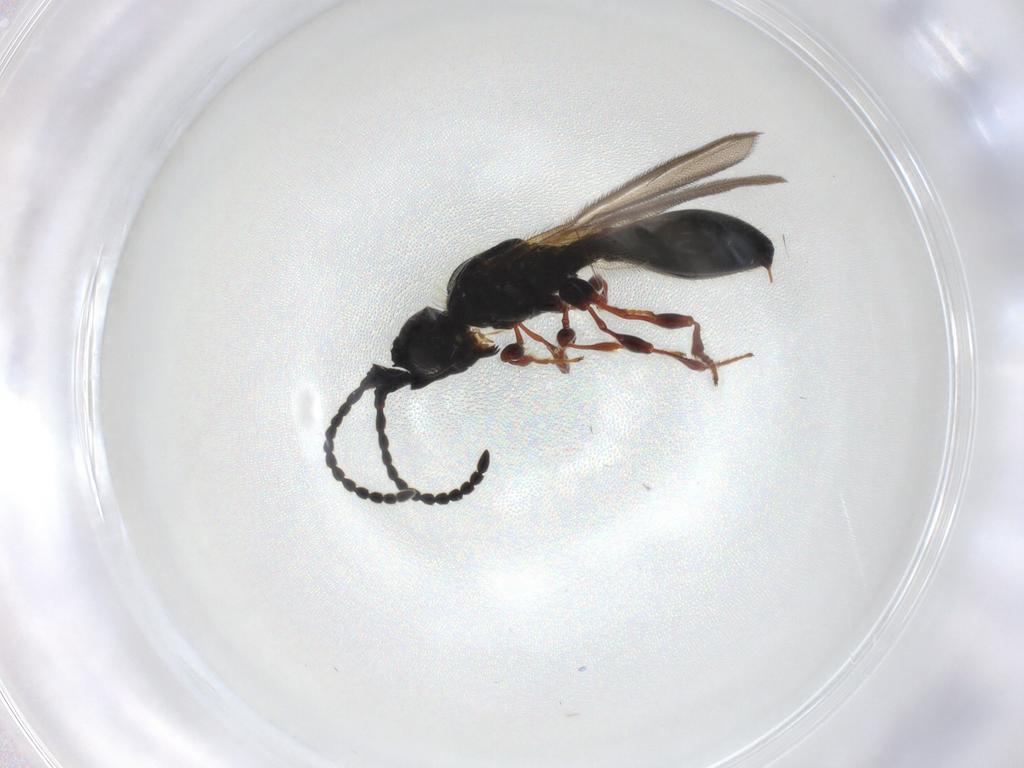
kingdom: Animalia
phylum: Arthropoda
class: Insecta
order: Hymenoptera
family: Diapriidae
